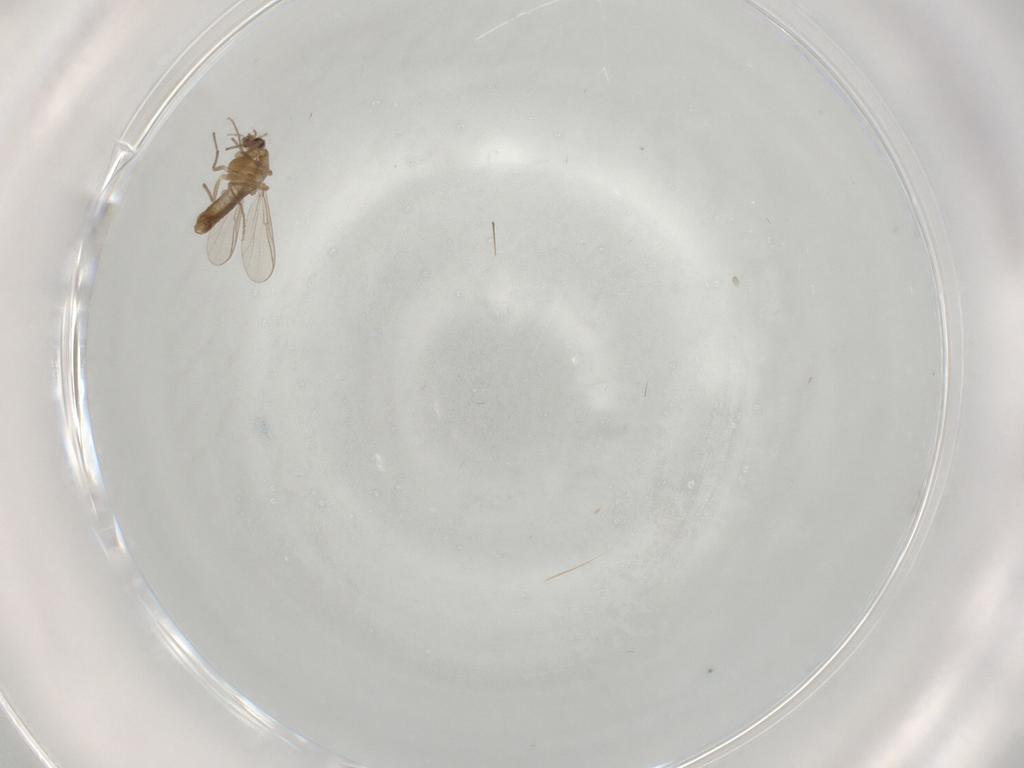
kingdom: Animalia
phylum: Arthropoda
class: Insecta
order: Diptera
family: Chironomidae
